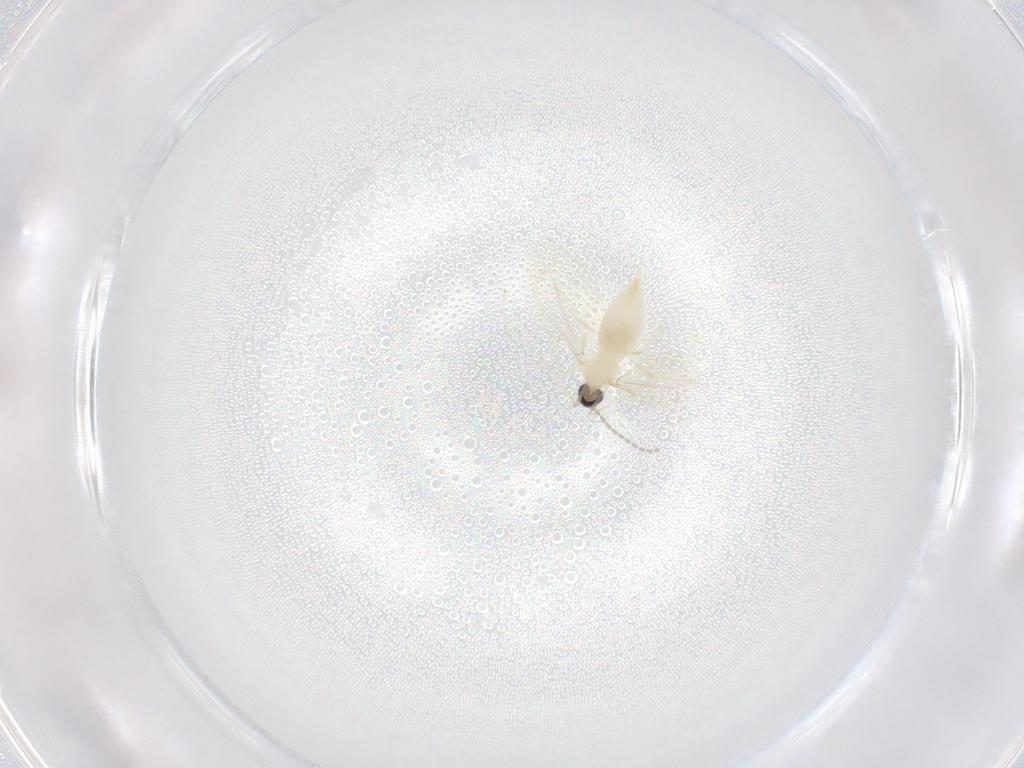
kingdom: Animalia
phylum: Arthropoda
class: Insecta
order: Diptera
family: Cecidomyiidae
